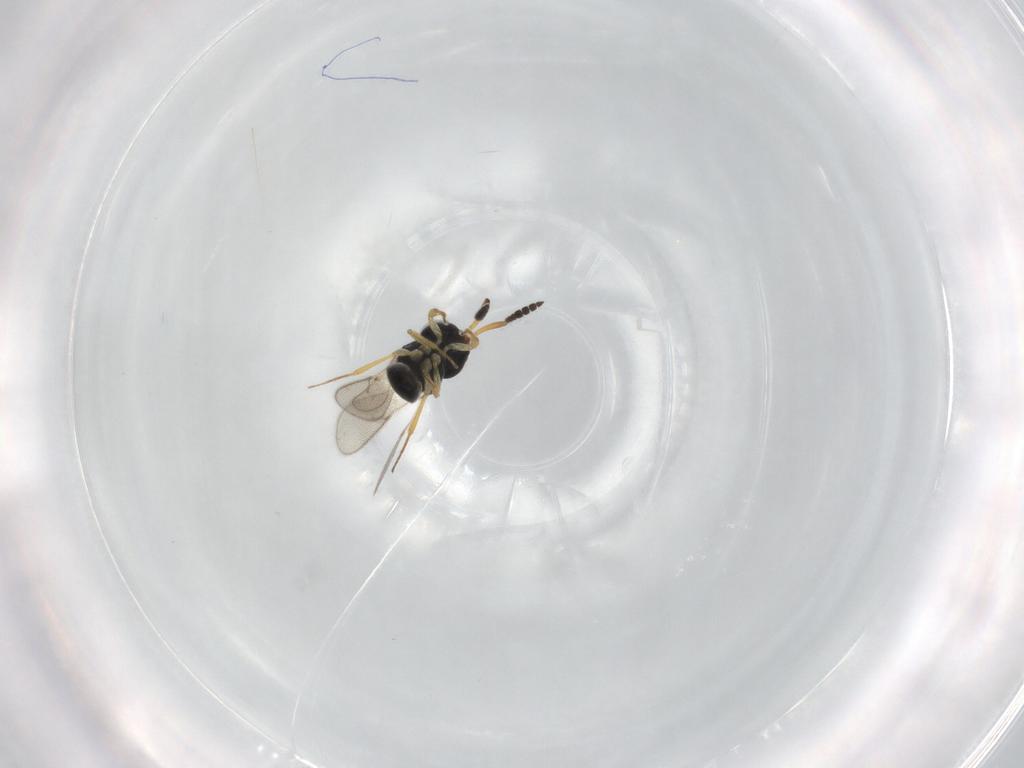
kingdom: Animalia
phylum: Arthropoda
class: Insecta
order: Hymenoptera
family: Scelionidae
